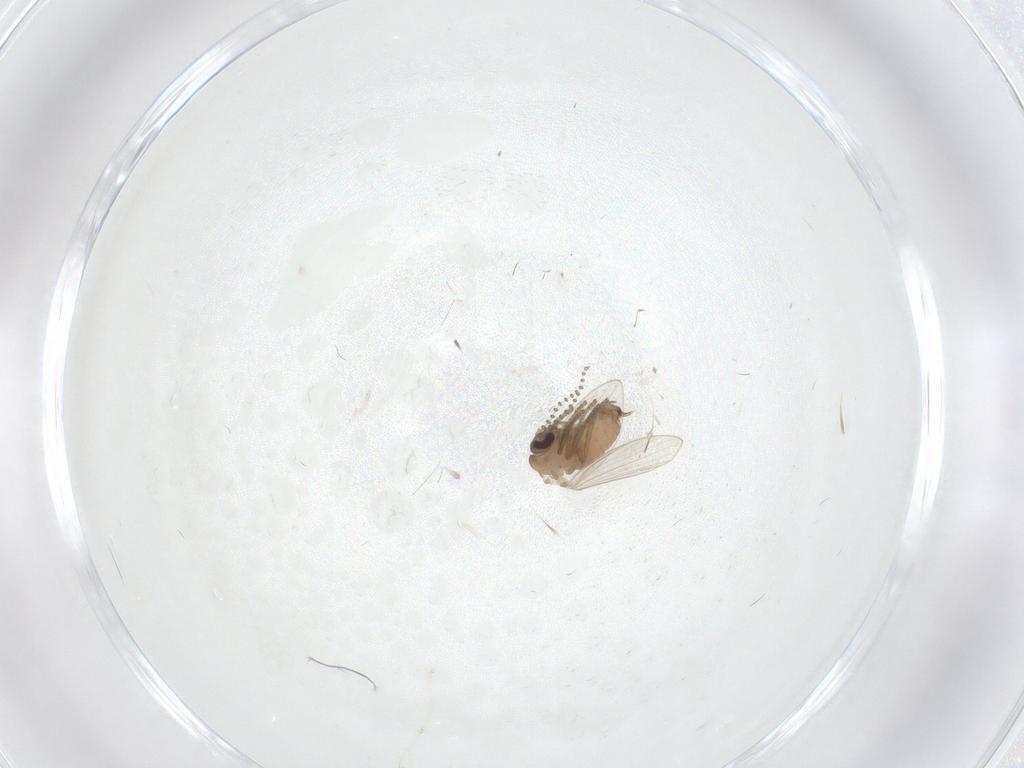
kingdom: Animalia
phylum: Arthropoda
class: Insecta
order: Diptera
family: Psychodidae
